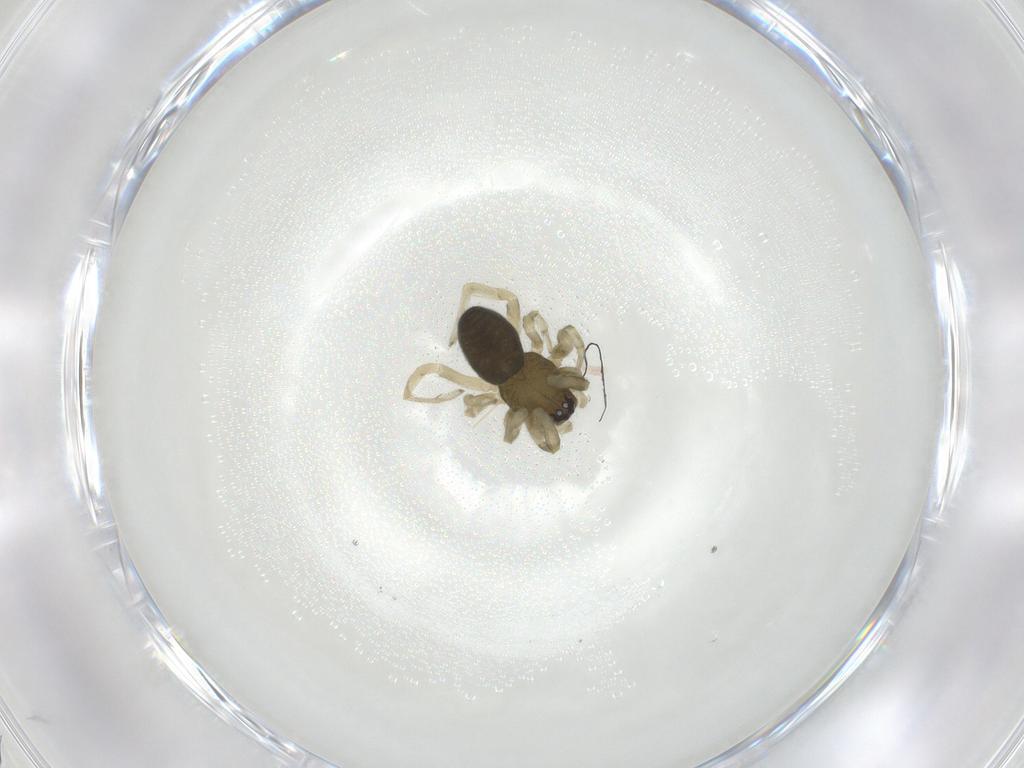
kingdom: Animalia
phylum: Arthropoda
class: Arachnida
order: Araneae
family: Trachelidae
